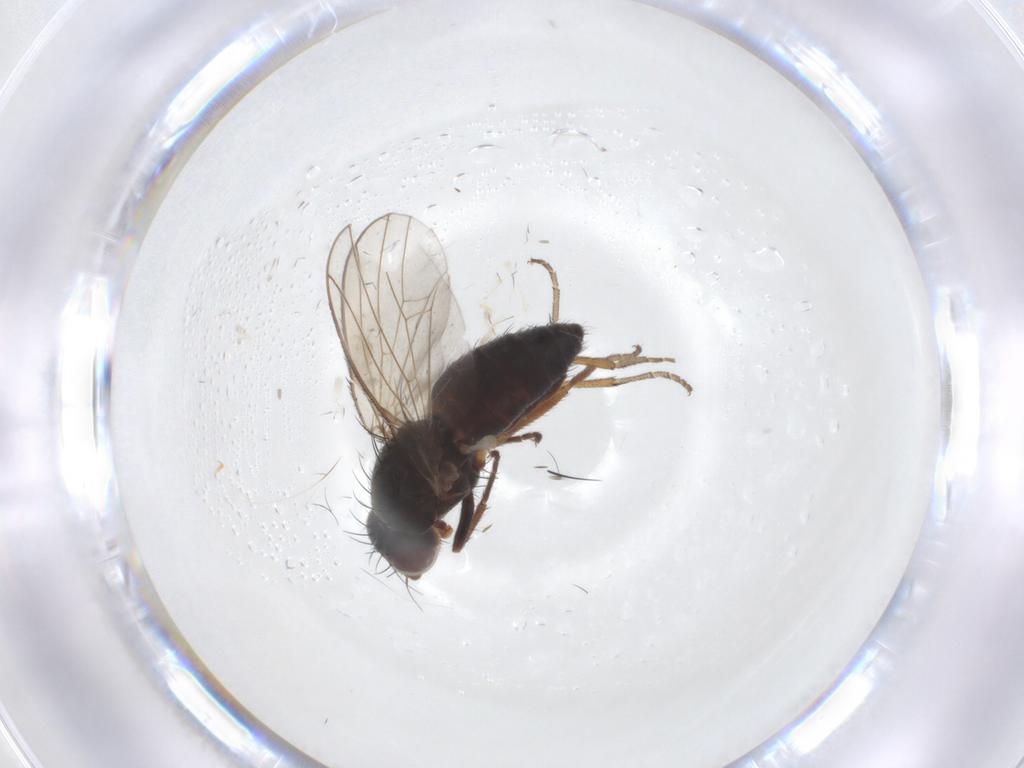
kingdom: Animalia
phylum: Arthropoda
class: Insecta
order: Diptera
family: Heleomyzidae
